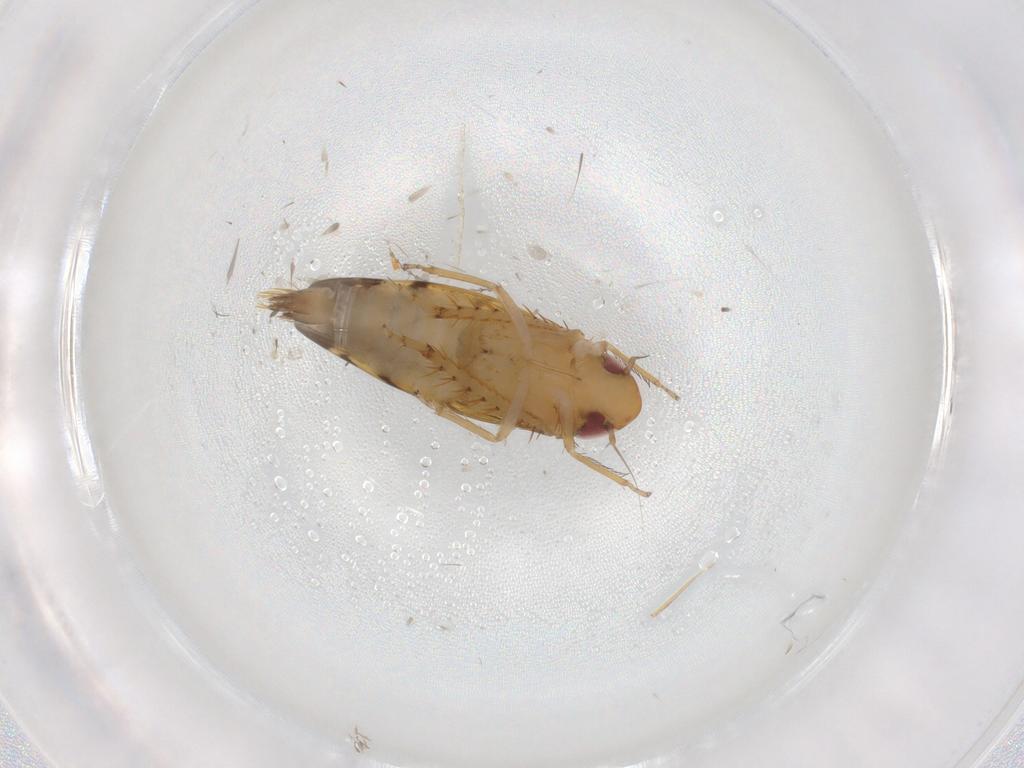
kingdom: Animalia
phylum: Arthropoda
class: Insecta
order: Hemiptera
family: Cicadellidae
